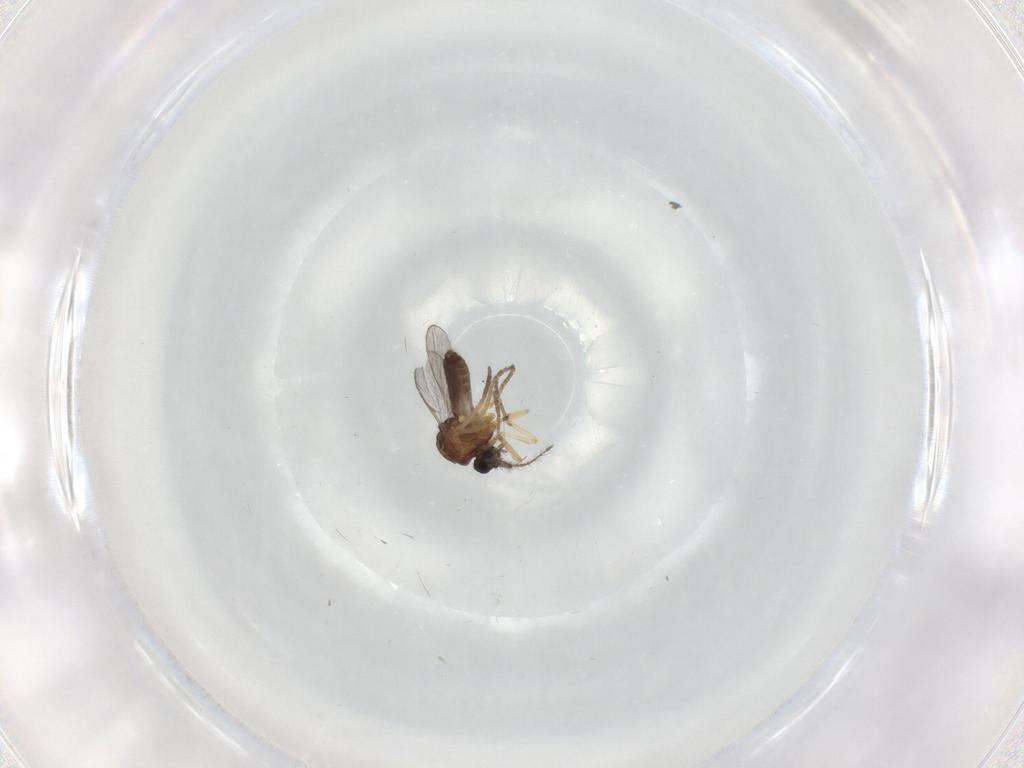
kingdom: Animalia
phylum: Arthropoda
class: Insecta
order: Diptera
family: Ceratopogonidae
